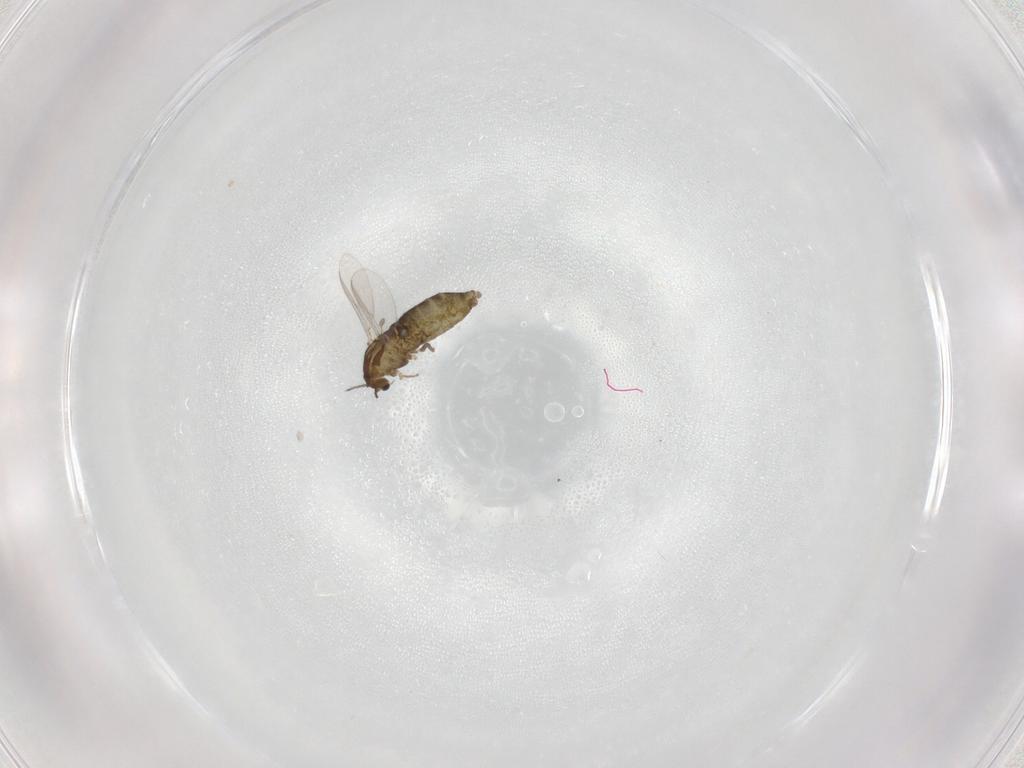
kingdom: Animalia
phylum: Arthropoda
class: Insecta
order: Diptera
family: Chironomidae
